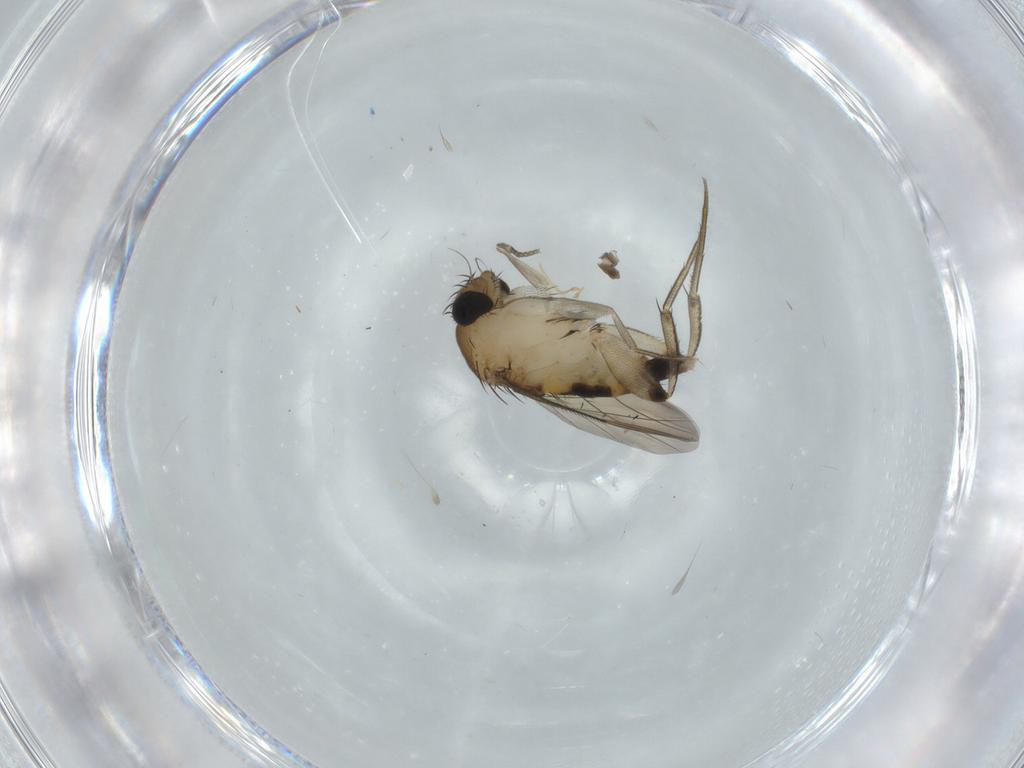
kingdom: Animalia
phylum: Arthropoda
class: Insecta
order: Diptera
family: Phoridae
